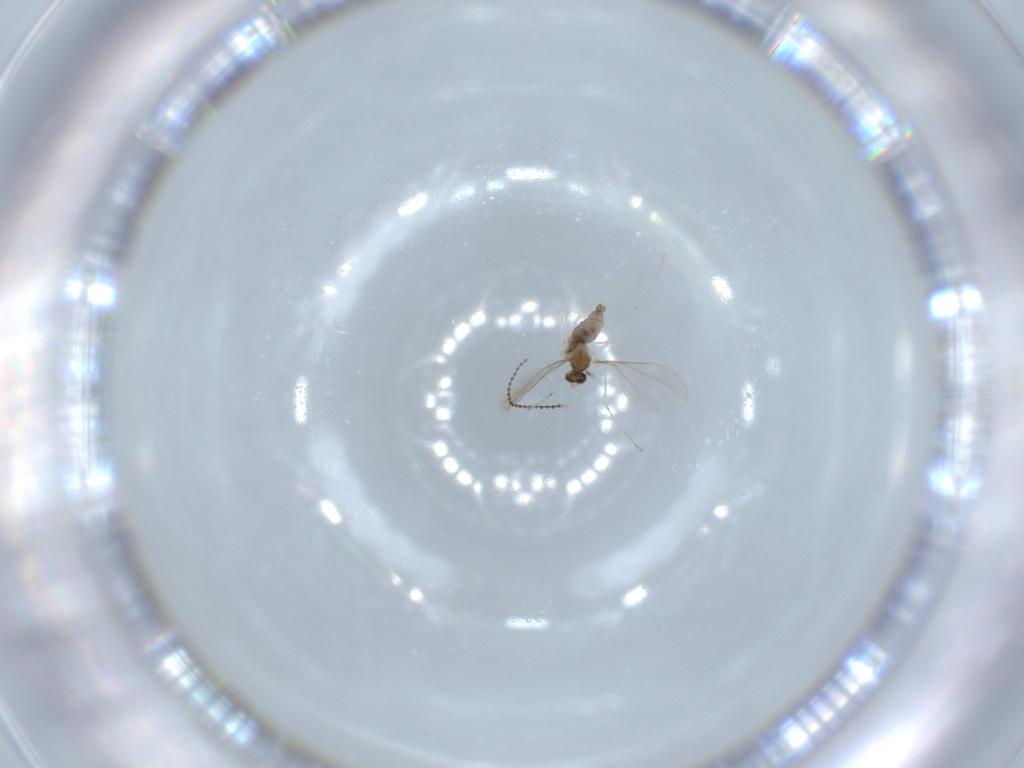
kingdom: Animalia
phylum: Arthropoda
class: Insecta
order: Diptera
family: Cecidomyiidae
